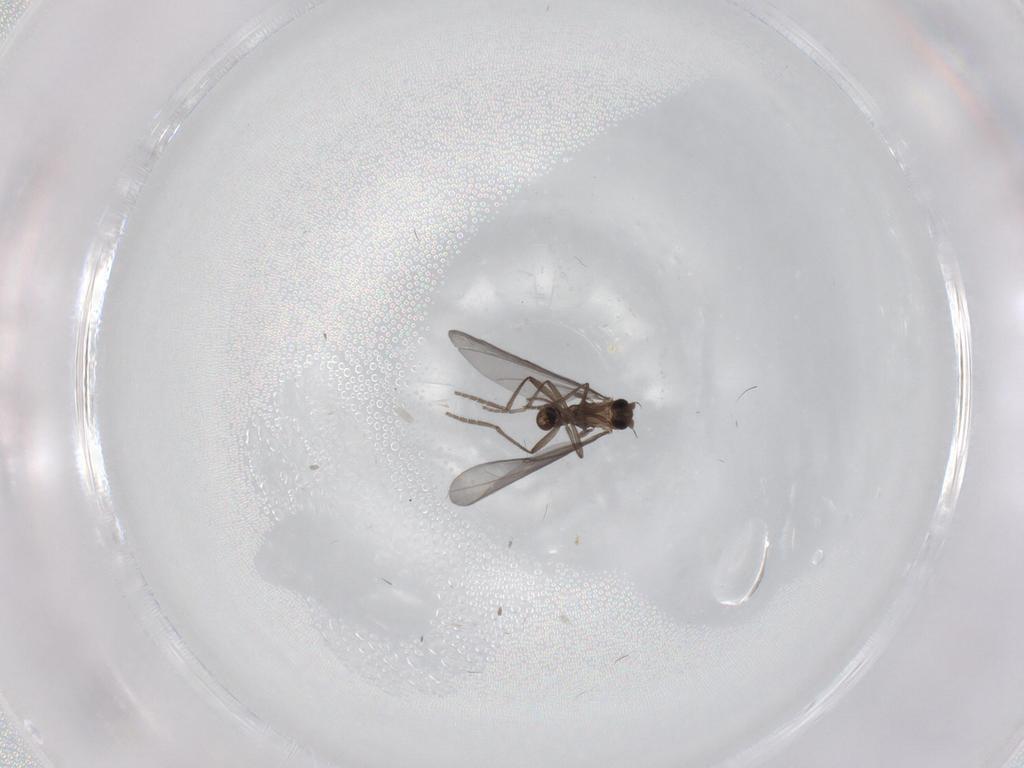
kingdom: Animalia
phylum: Arthropoda
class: Insecta
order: Diptera
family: Phoridae
